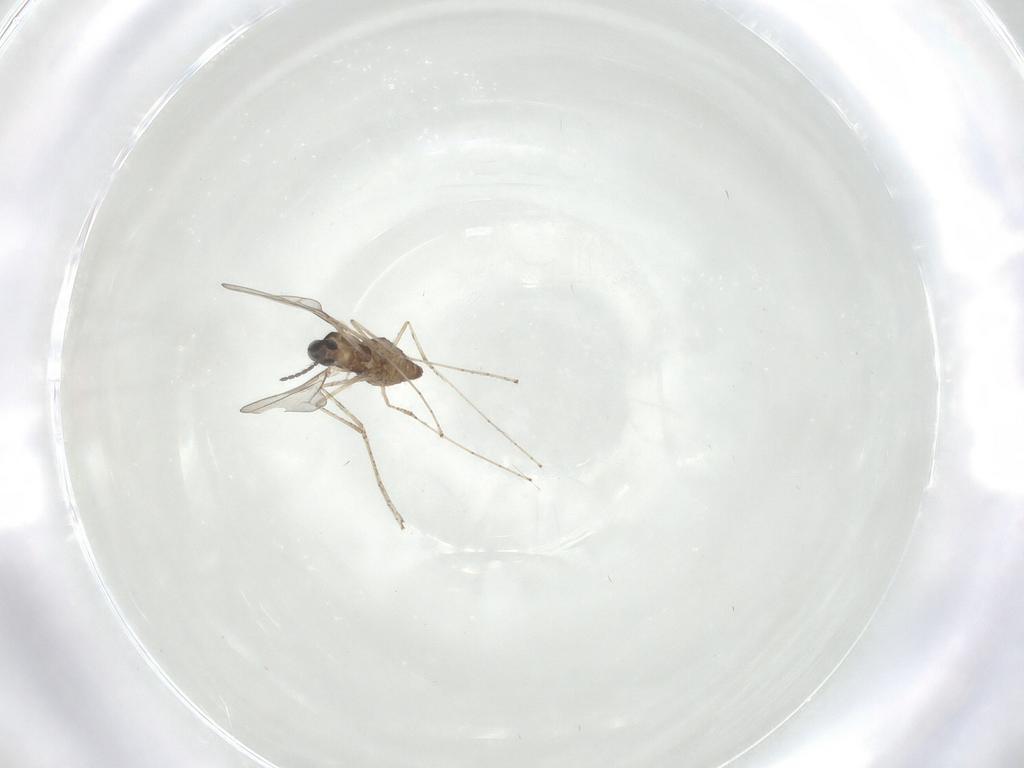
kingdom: Animalia
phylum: Arthropoda
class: Insecta
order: Diptera
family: Cecidomyiidae
